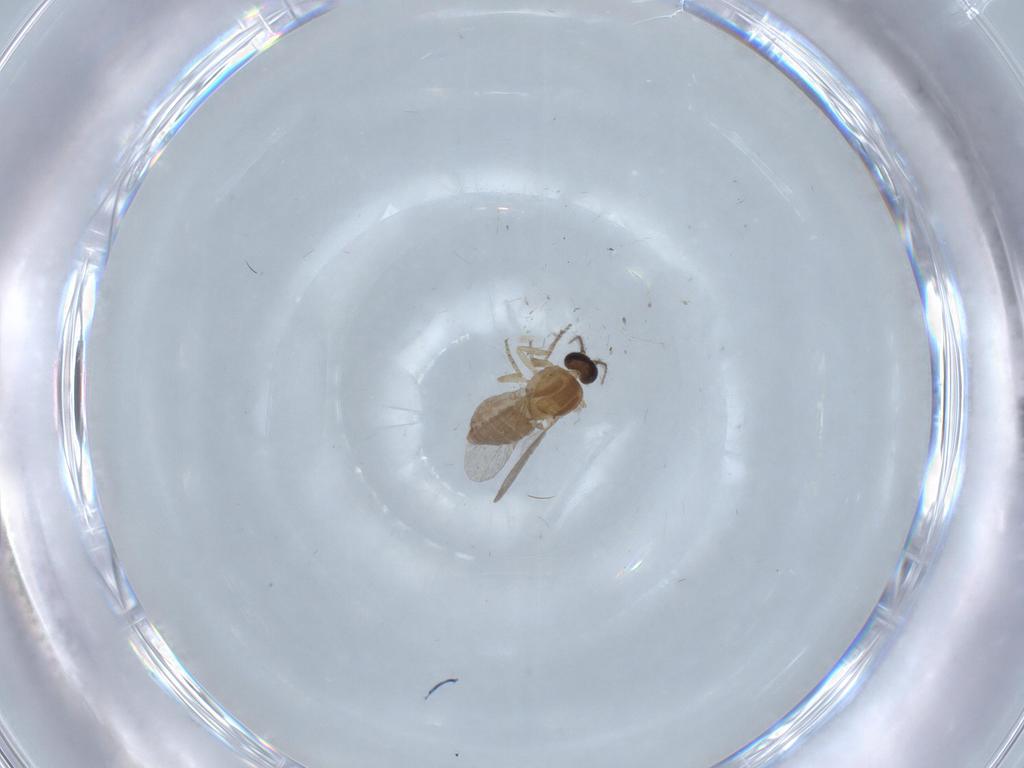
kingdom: Animalia
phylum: Arthropoda
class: Insecta
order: Diptera
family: Ceratopogonidae
